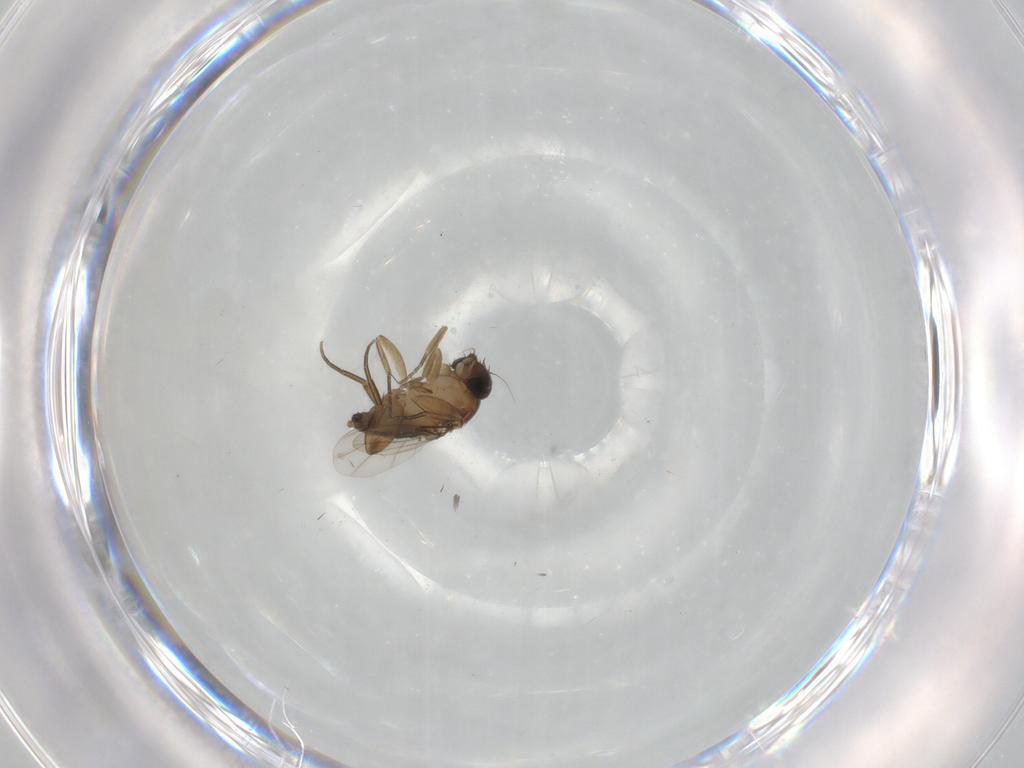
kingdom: Animalia
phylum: Arthropoda
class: Insecta
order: Diptera
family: Phoridae
